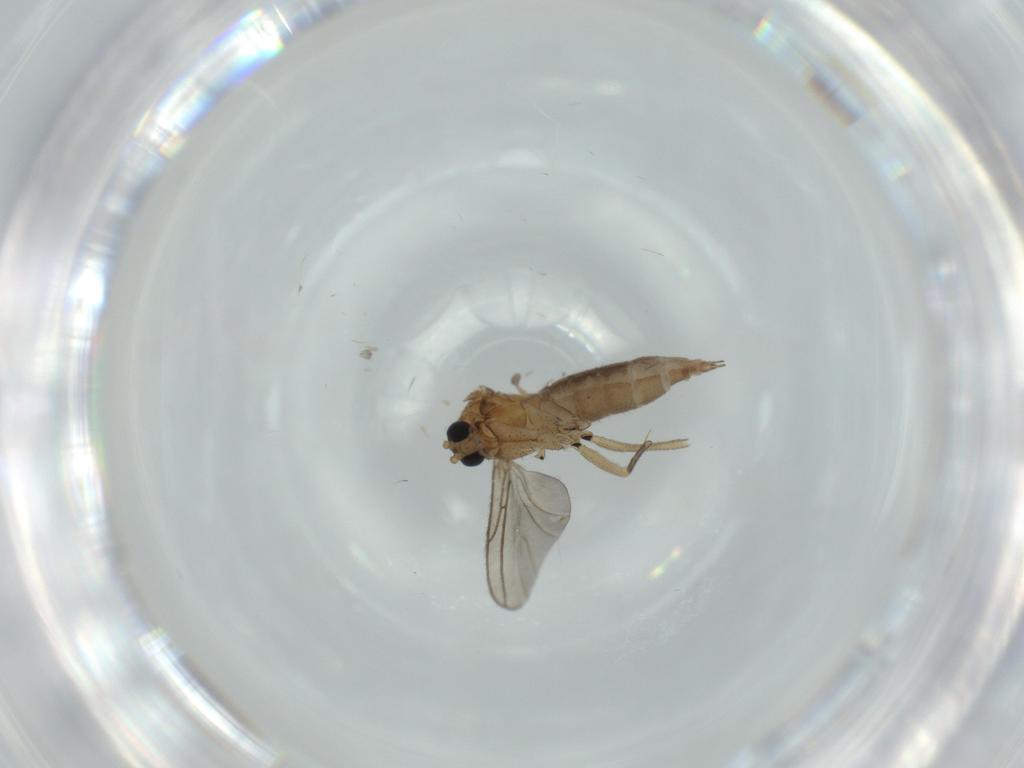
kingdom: Animalia
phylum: Arthropoda
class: Insecta
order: Diptera
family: Sciaridae
